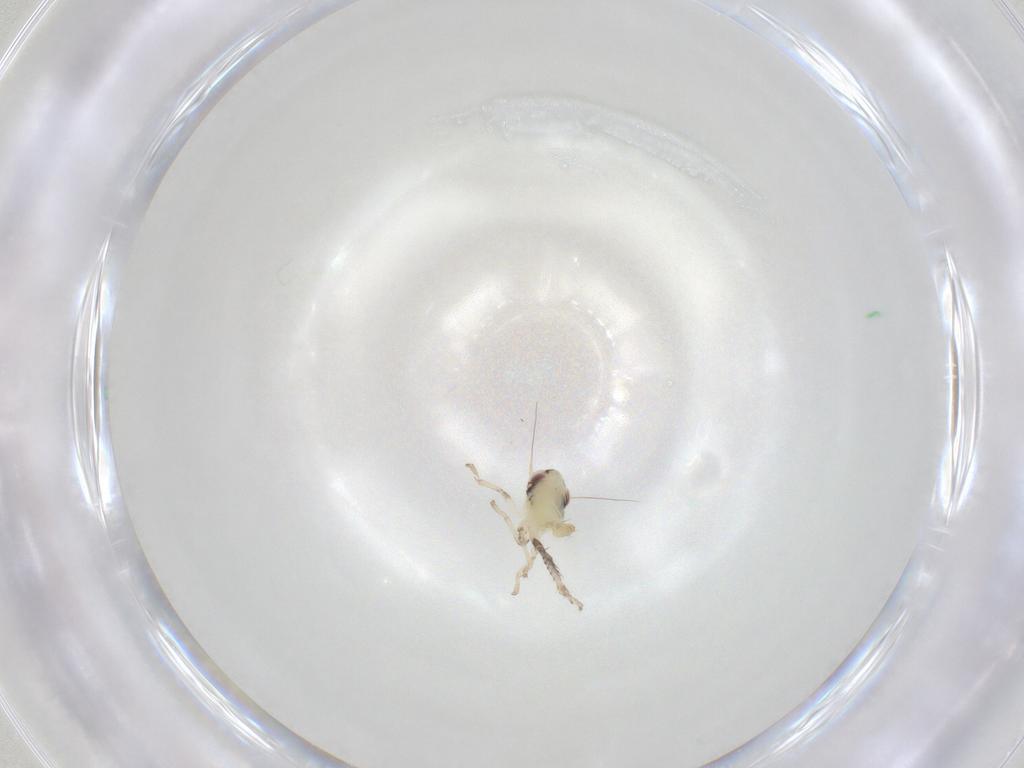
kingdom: Animalia
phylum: Arthropoda
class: Insecta
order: Hemiptera
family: Cicadellidae
